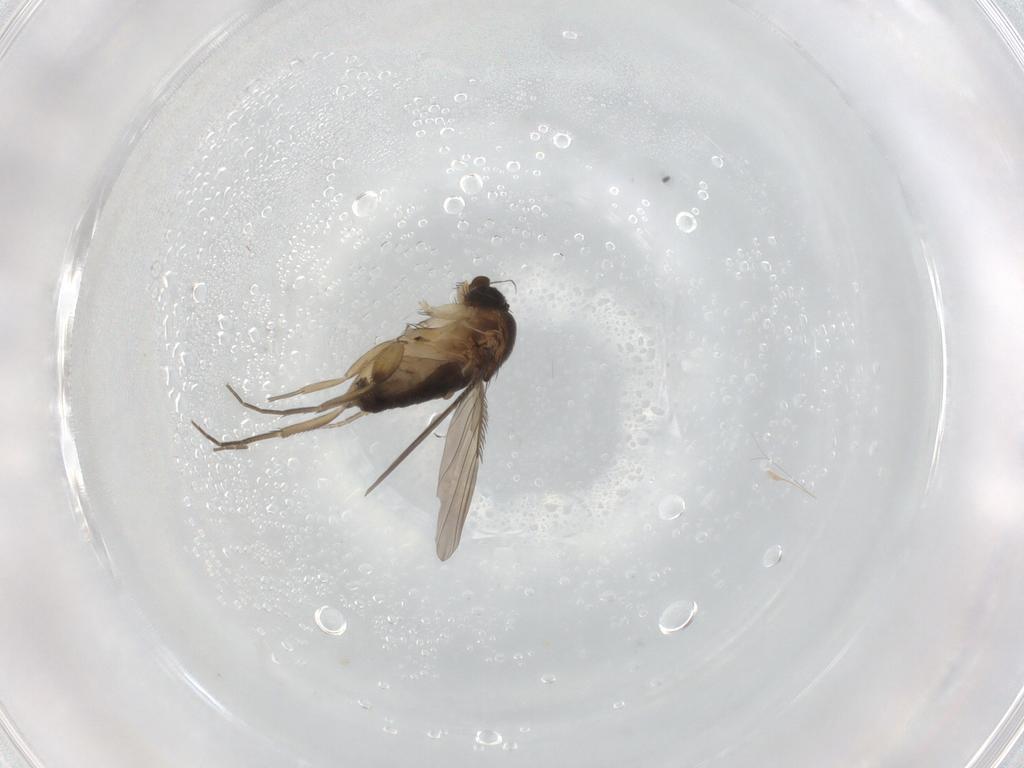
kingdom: Animalia
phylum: Arthropoda
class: Insecta
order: Diptera
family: Phoridae
